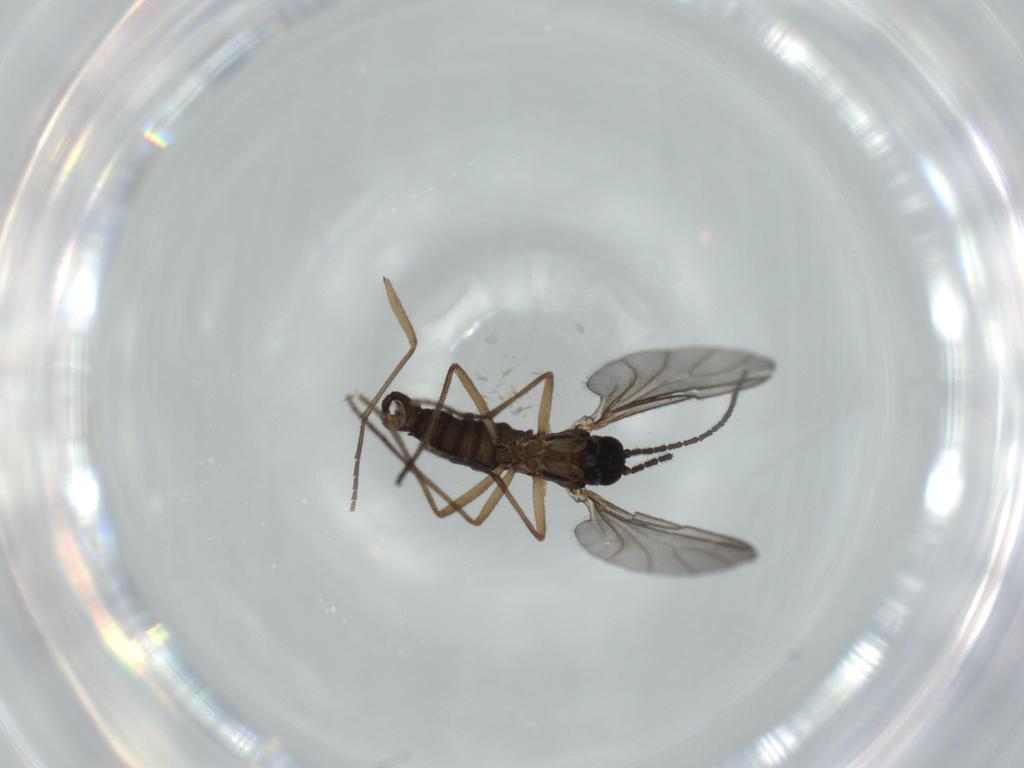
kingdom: Animalia
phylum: Arthropoda
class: Insecta
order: Diptera
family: Sciaridae
